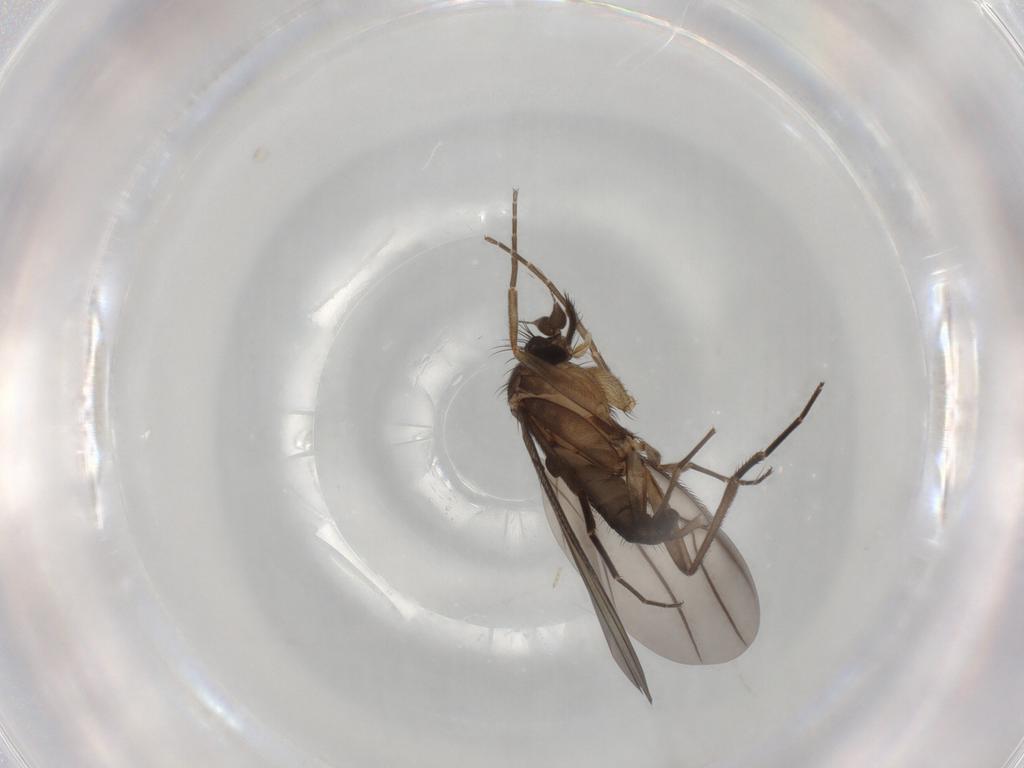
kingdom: Animalia
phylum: Arthropoda
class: Insecta
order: Diptera
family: Phoridae
